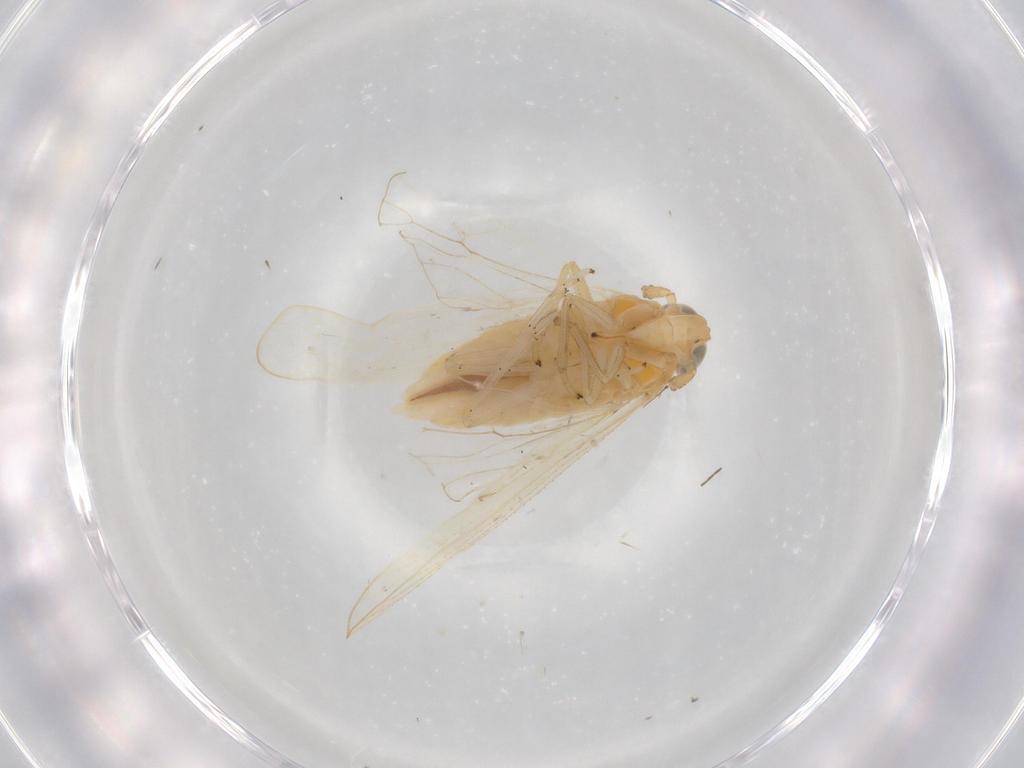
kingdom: Animalia
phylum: Arthropoda
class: Insecta
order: Hemiptera
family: Delphacidae
